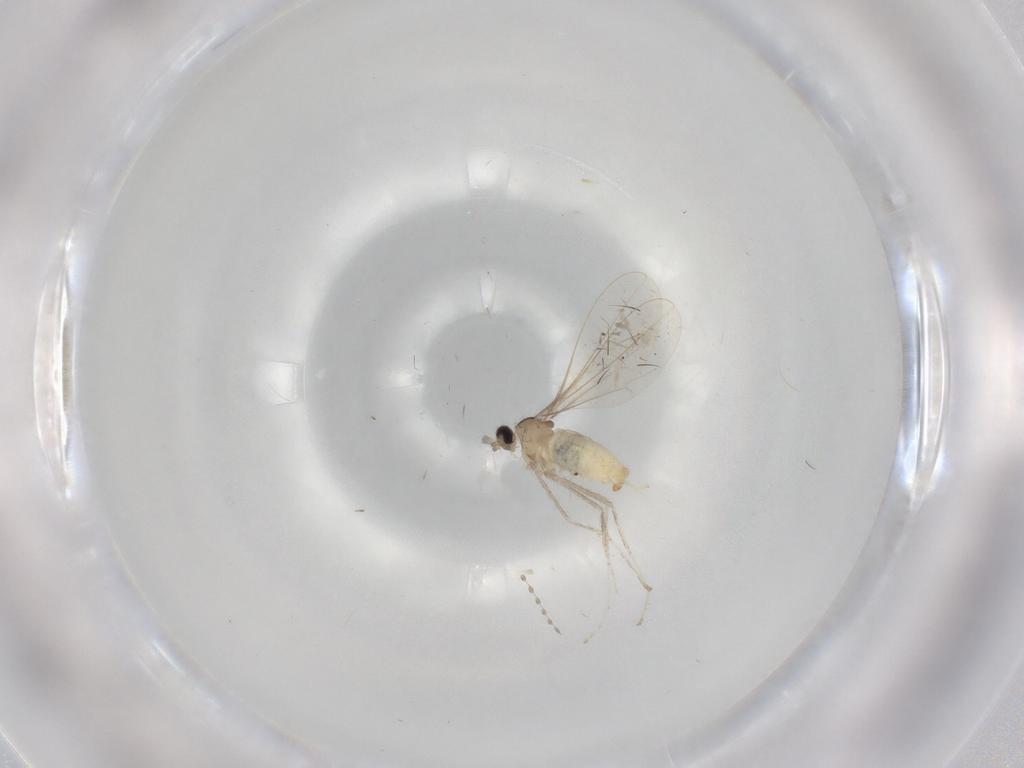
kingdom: Animalia
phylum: Arthropoda
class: Insecta
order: Diptera
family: Cecidomyiidae
